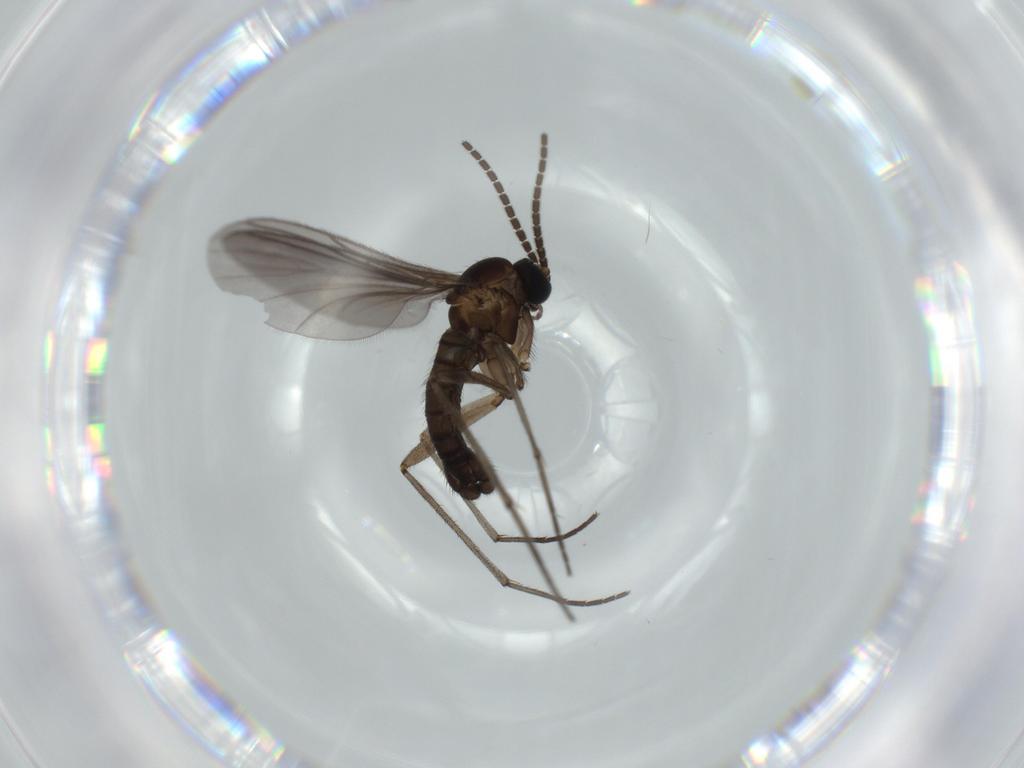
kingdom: Animalia
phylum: Arthropoda
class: Insecta
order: Diptera
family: Sciaridae
